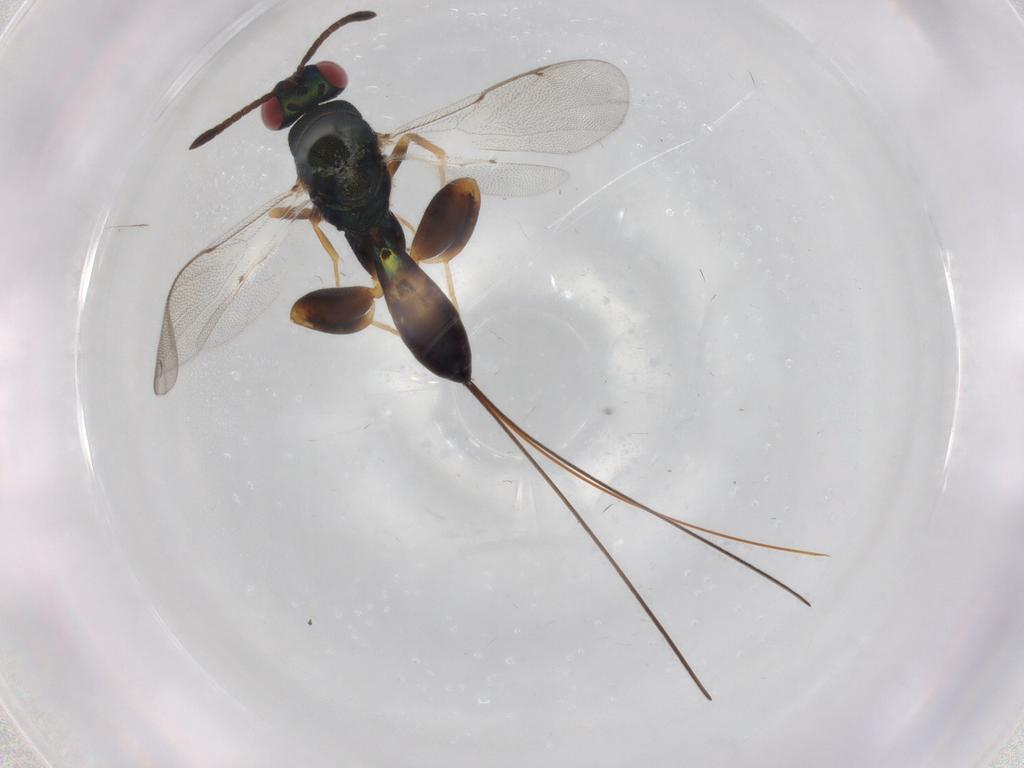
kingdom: Animalia
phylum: Arthropoda
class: Insecta
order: Hymenoptera
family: Torymidae
